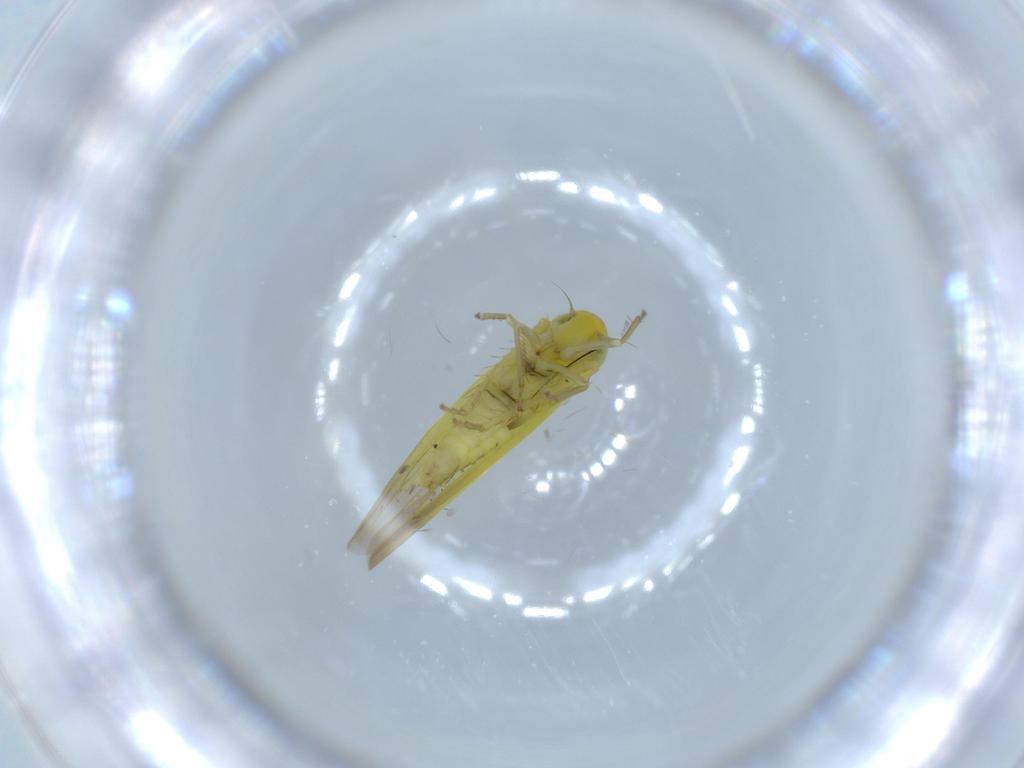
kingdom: Animalia
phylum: Arthropoda
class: Insecta
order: Hemiptera
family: Cicadellidae
